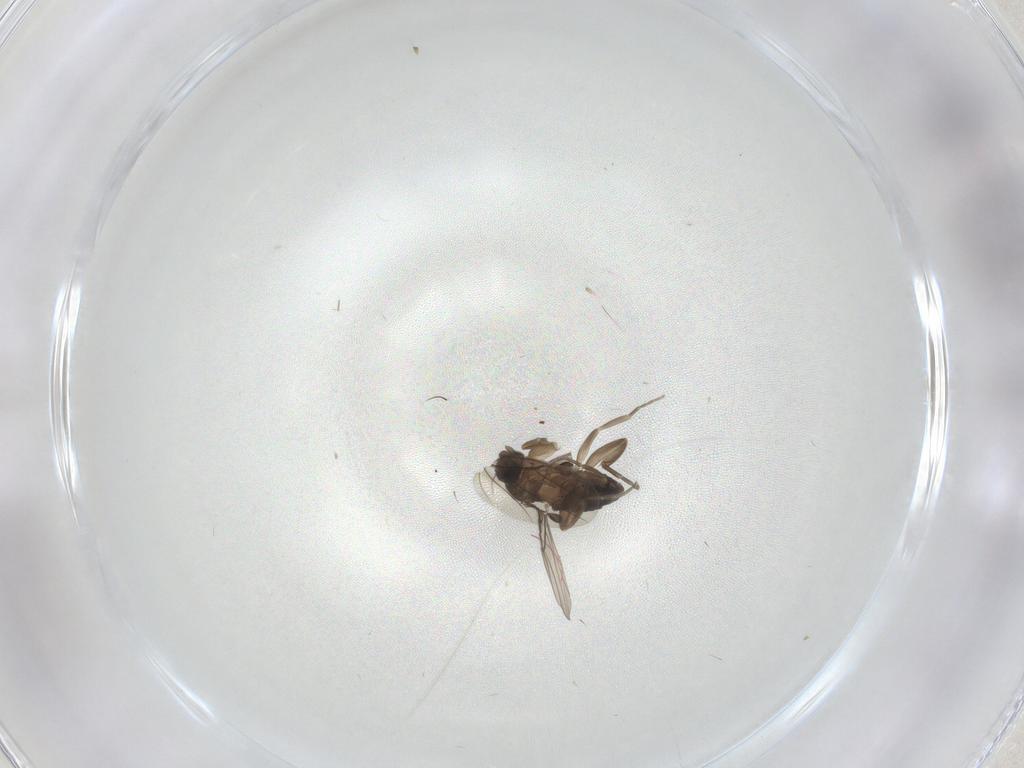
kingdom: Animalia
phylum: Arthropoda
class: Insecta
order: Diptera
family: Phoridae
